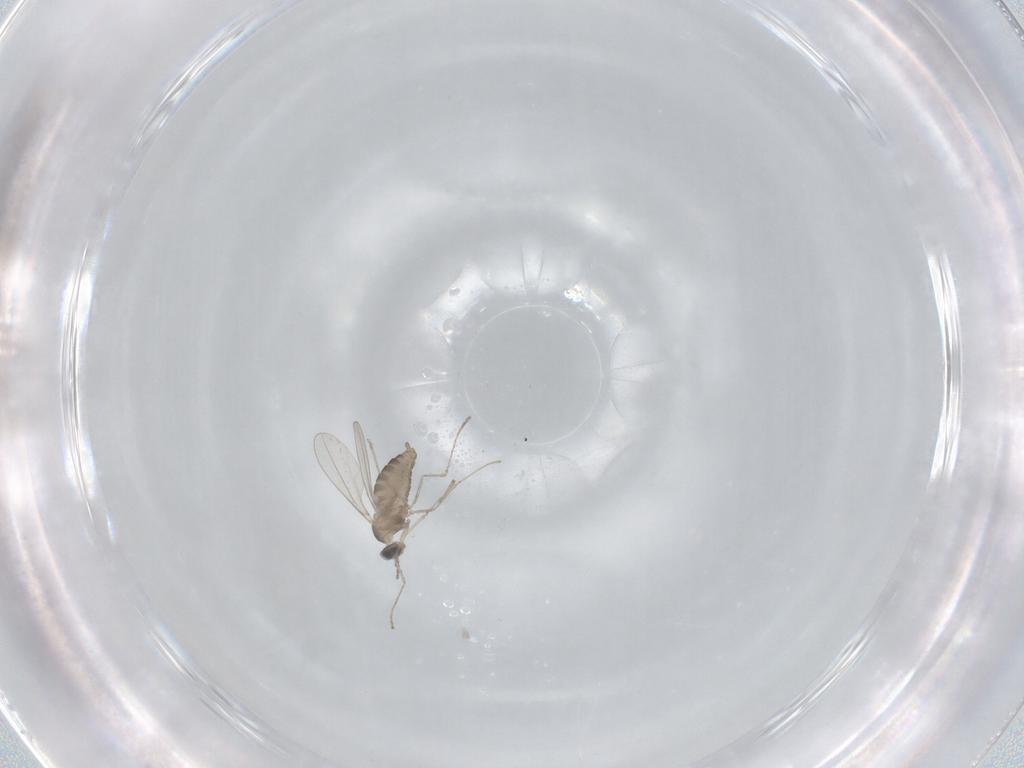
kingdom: Animalia
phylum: Arthropoda
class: Insecta
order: Diptera
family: Cecidomyiidae
